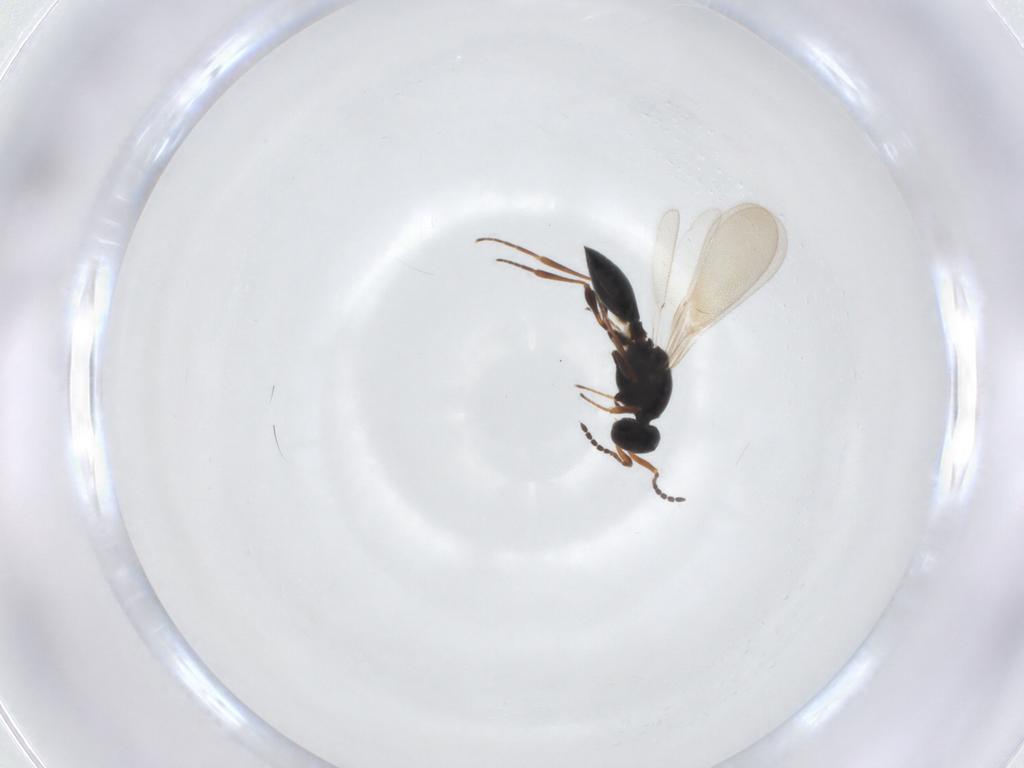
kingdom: Animalia
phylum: Arthropoda
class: Insecta
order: Hymenoptera
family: Platygastridae
